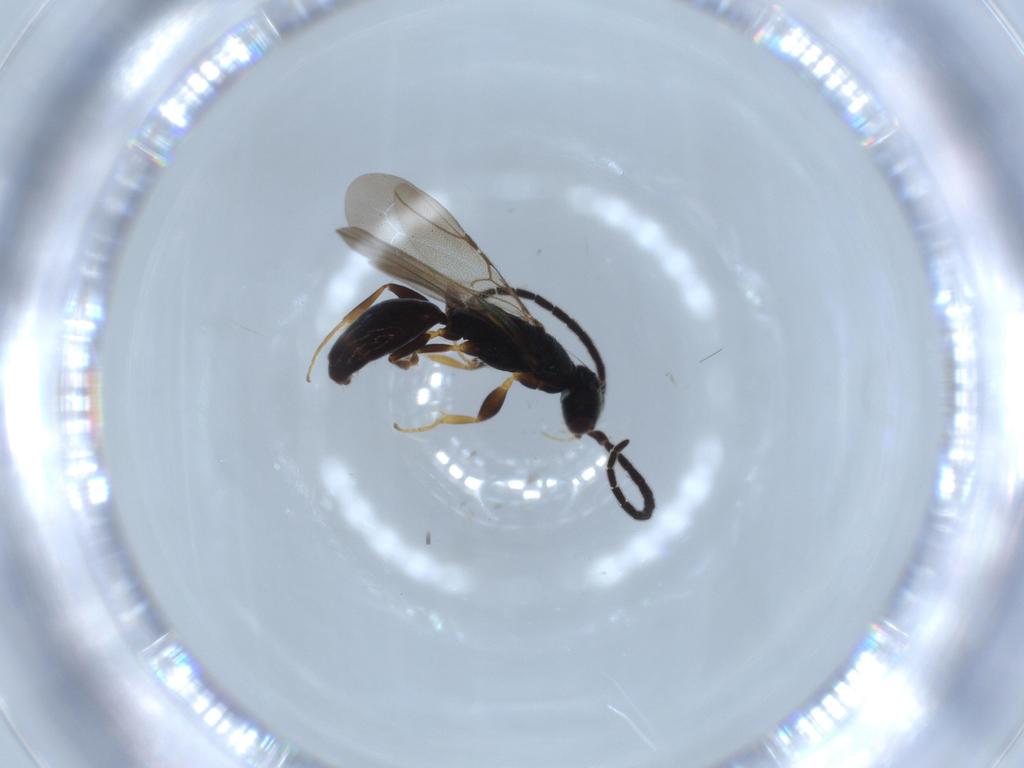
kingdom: Animalia
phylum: Arthropoda
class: Insecta
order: Hymenoptera
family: Bethylidae
